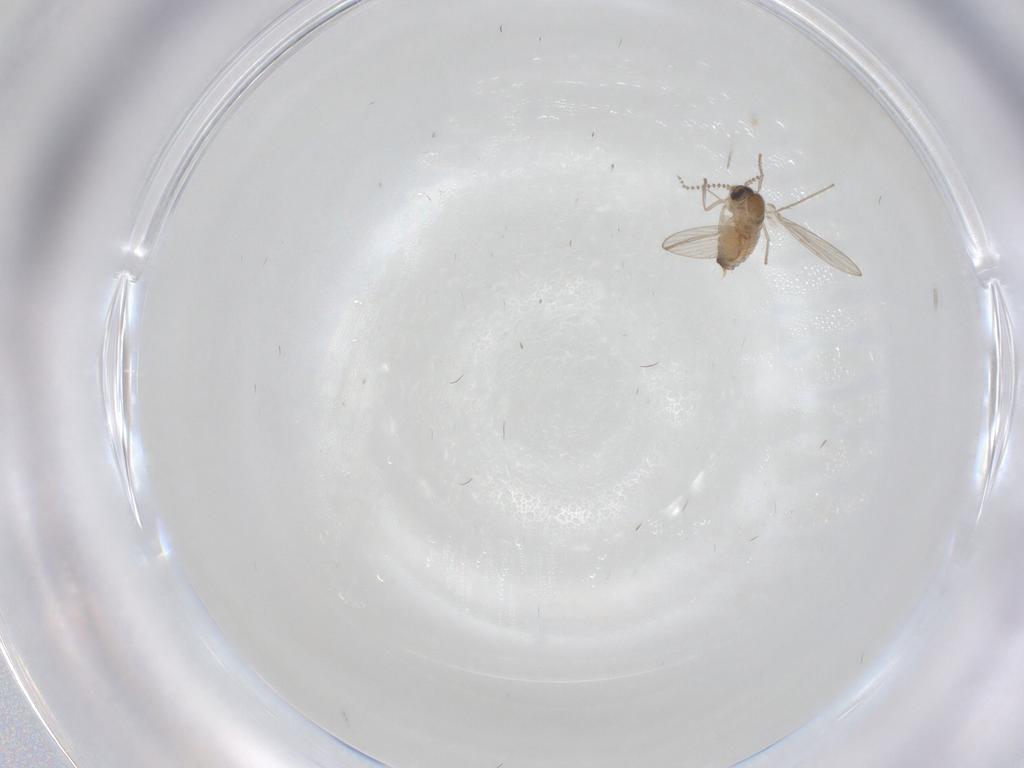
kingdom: Animalia
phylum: Arthropoda
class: Insecta
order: Diptera
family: Psychodidae
